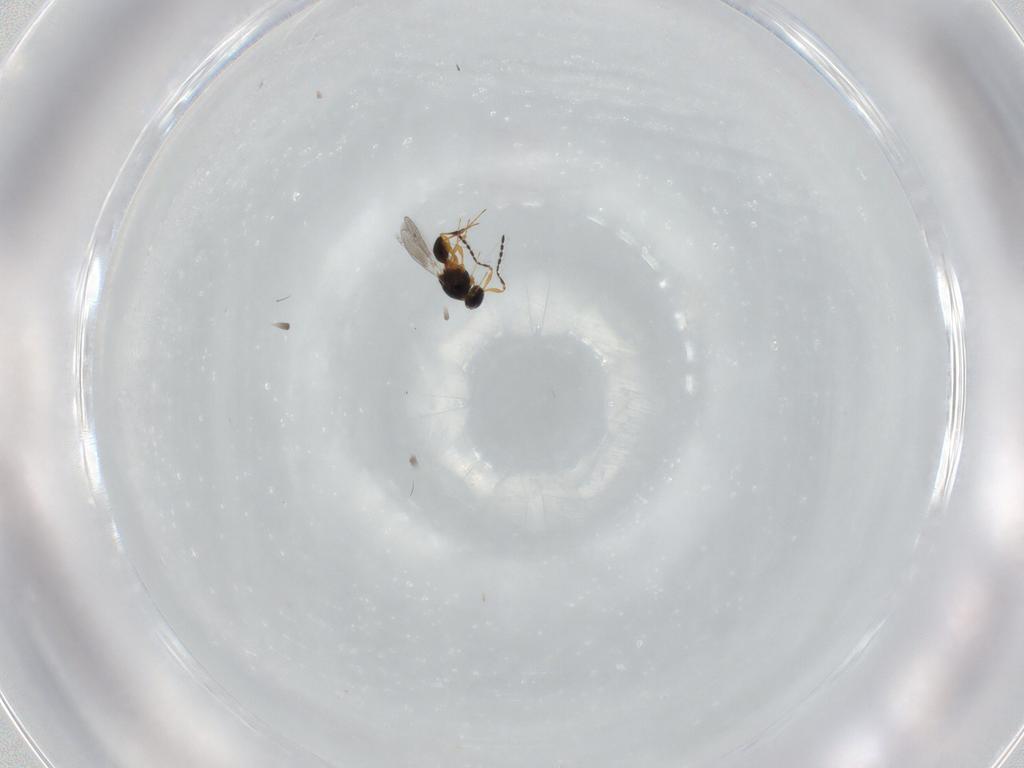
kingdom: Animalia
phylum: Arthropoda
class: Insecta
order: Hymenoptera
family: Platygastridae
